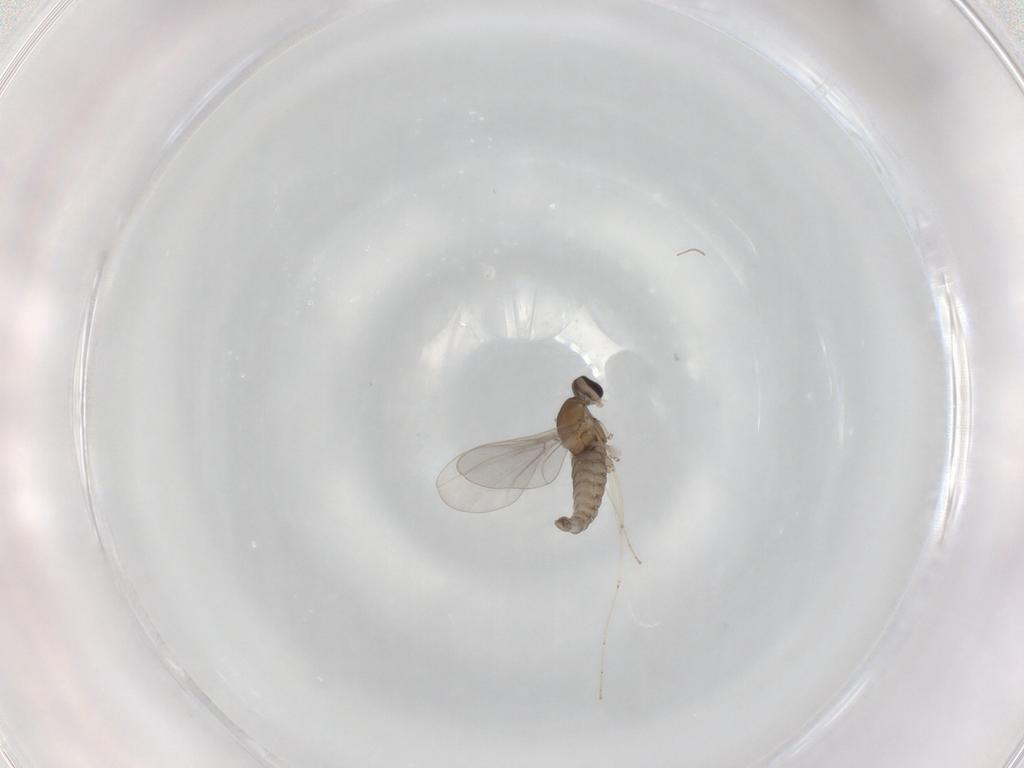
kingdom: Animalia
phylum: Arthropoda
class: Insecta
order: Diptera
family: Cecidomyiidae
